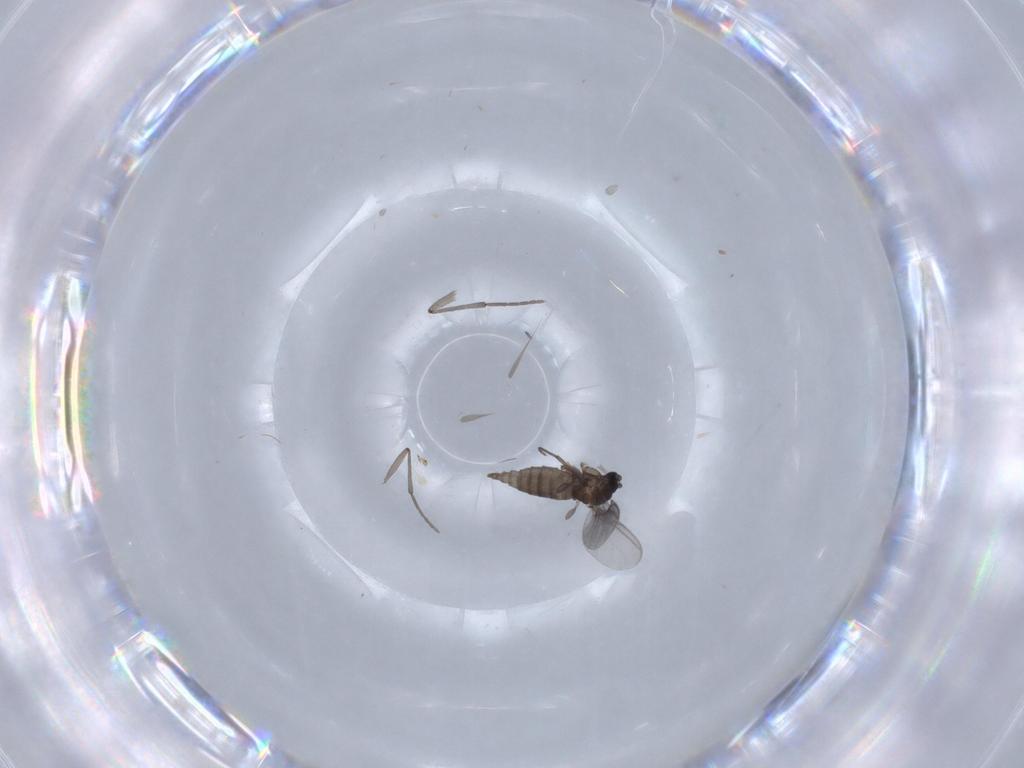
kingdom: Animalia
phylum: Arthropoda
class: Insecta
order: Diptera
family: Sciaridae
